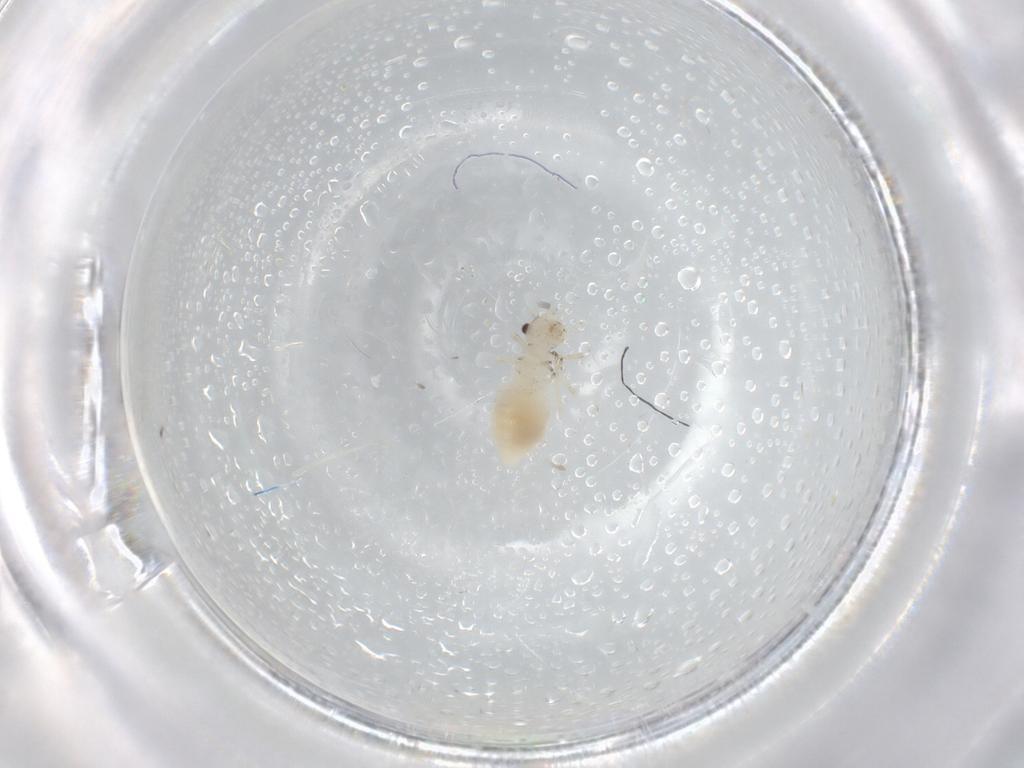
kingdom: Animalia
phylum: Arthropoda
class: Insecta
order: Psocodea
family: Caeciliusidae
